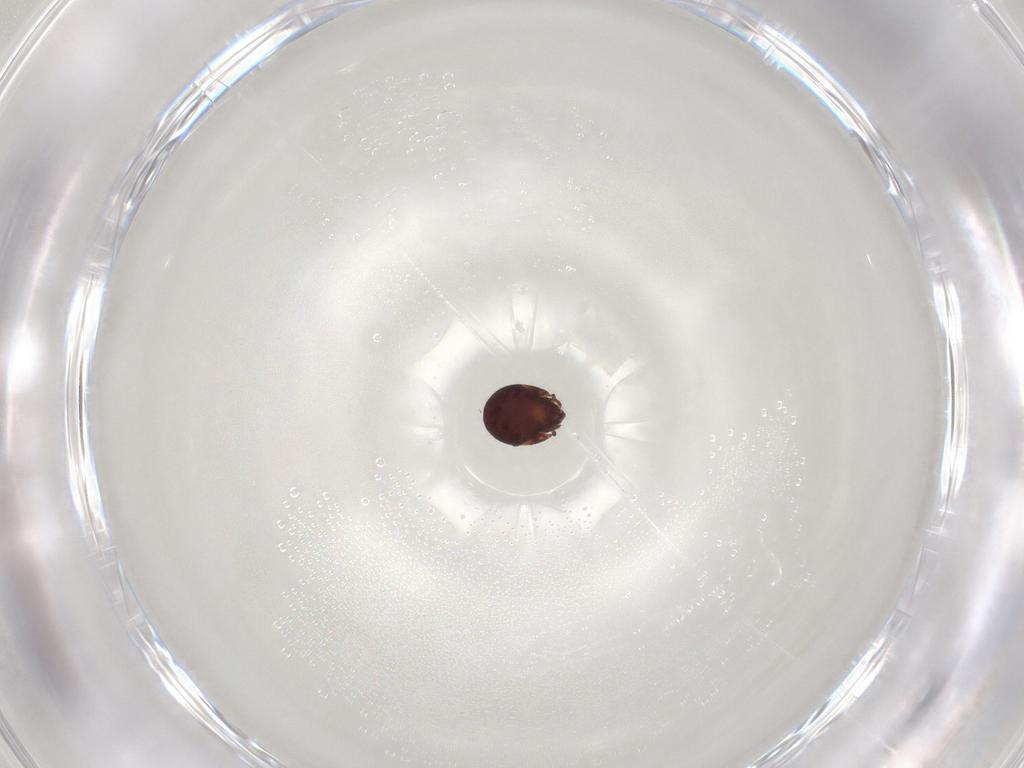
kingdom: Animalia
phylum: Arthropoda
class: Arachnida
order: Sarcoptiformes
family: Humerobatidae
